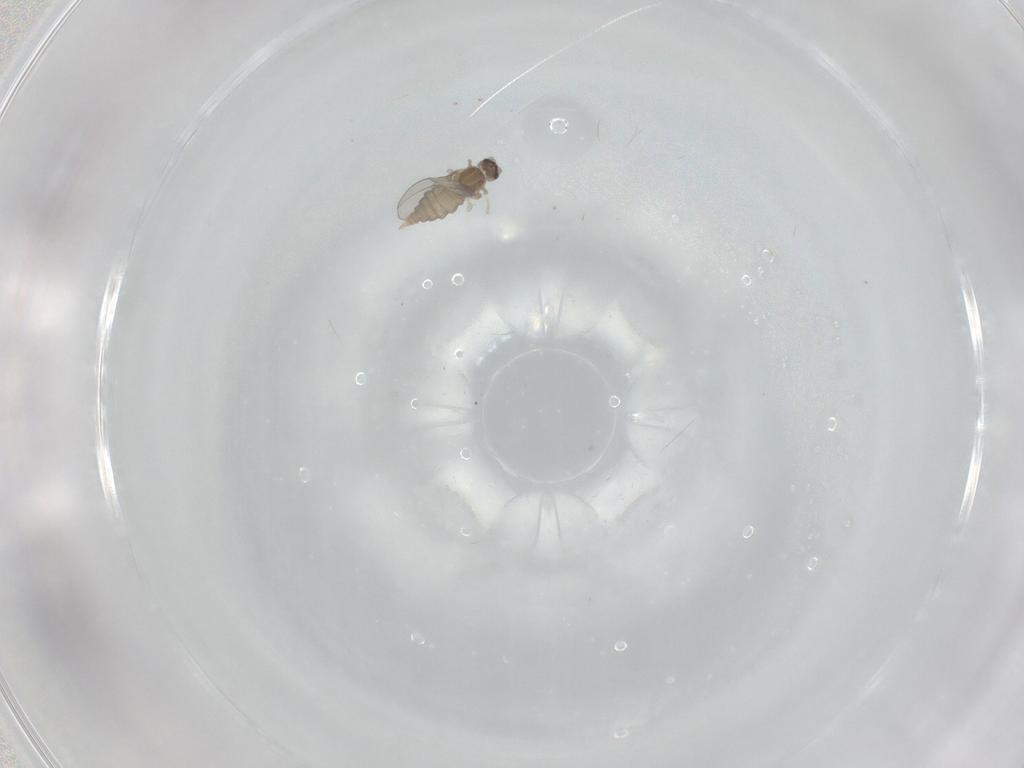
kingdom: Animalia
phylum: Arthropoda
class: Insecta
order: Diptera
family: Cecidomyiidae
